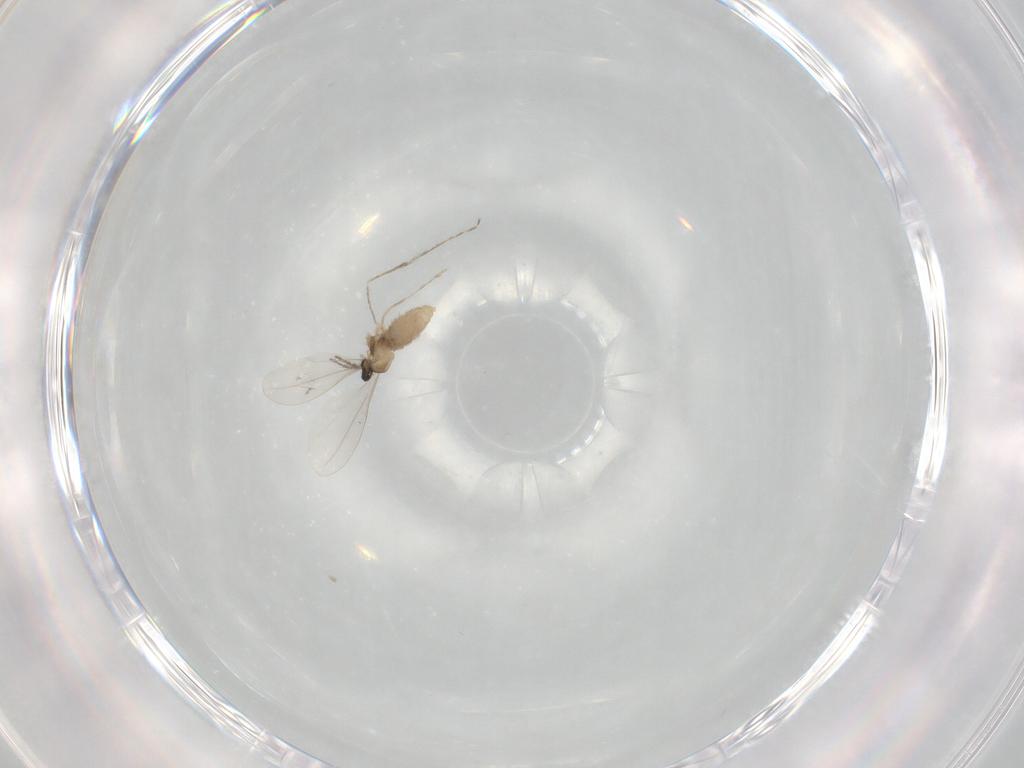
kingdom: Animalia
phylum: Arthropoda
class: Insecta
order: Diptera
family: Cecidomyiidae
